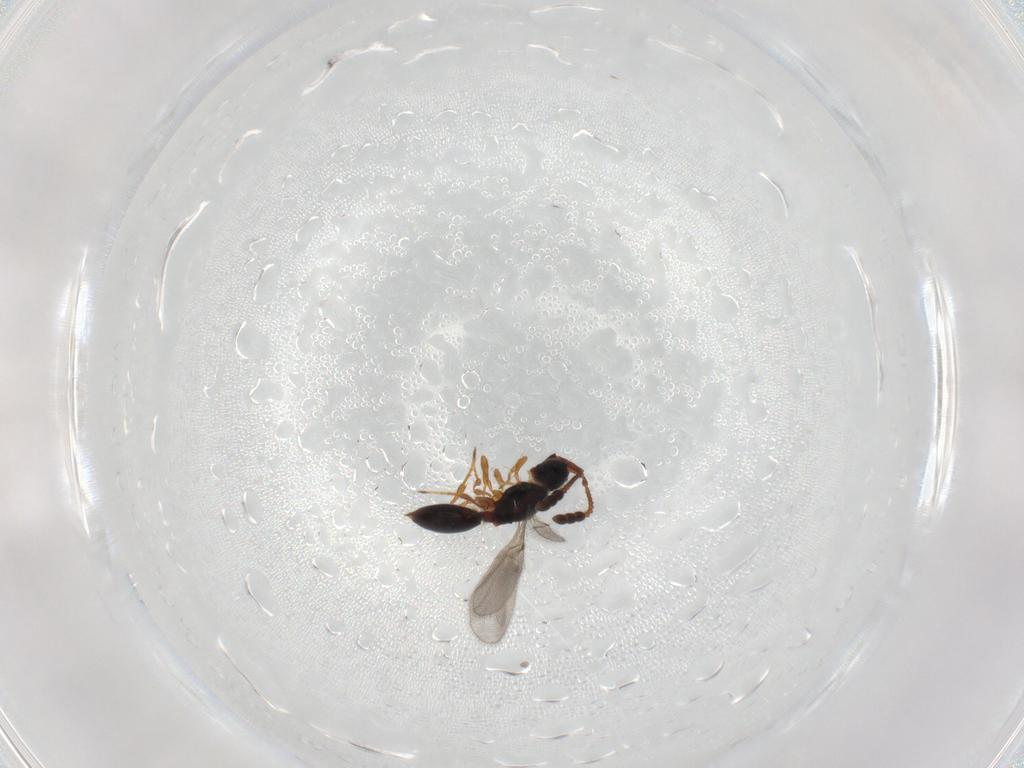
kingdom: Animalia
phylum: Arthropoda
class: Insecta
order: Hymenoptera
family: Diapriidae
